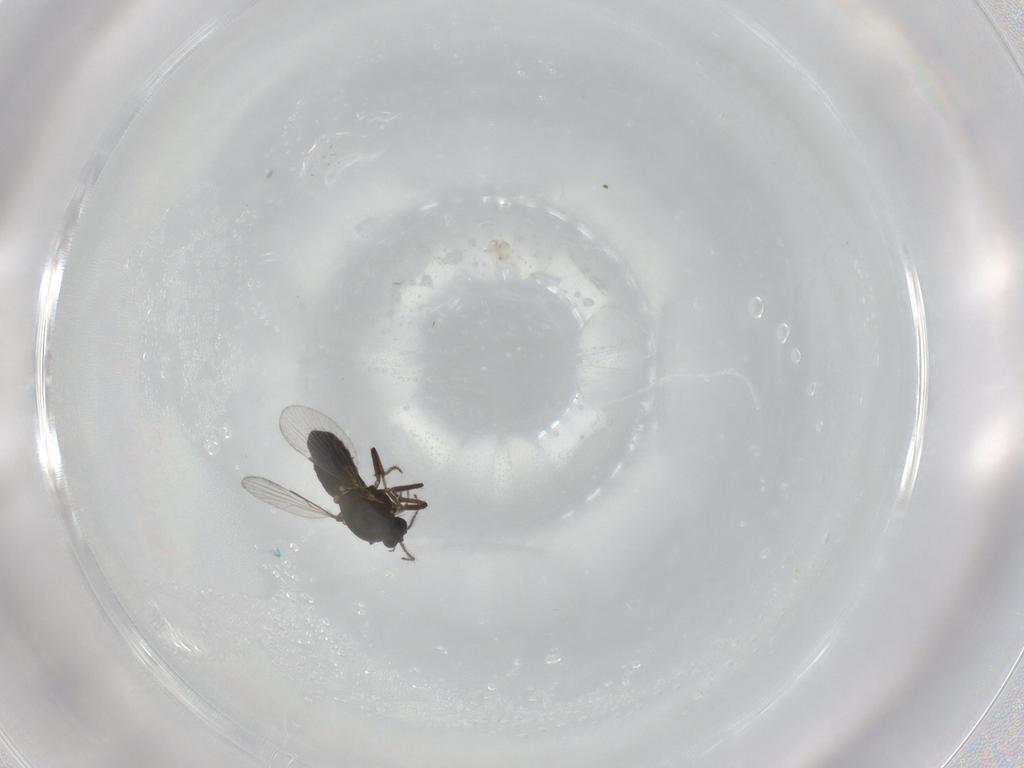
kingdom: Animalia
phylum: Arthropoda
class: Insecta
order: Diptera
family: Ceratopogonidae
